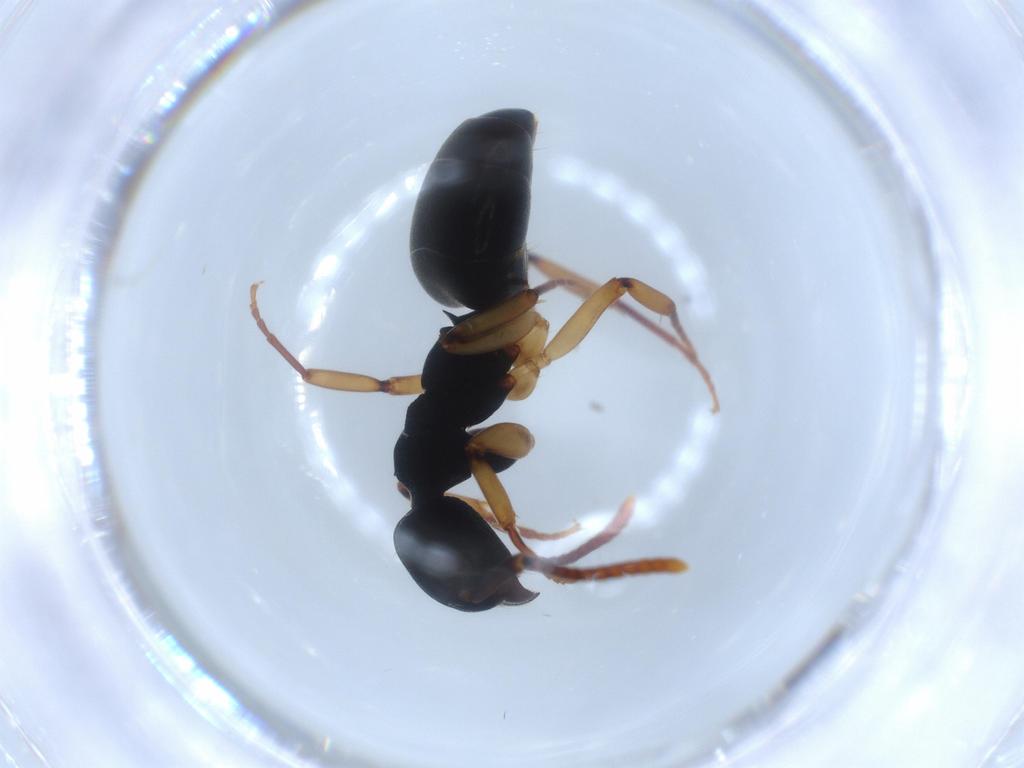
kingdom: Animalia
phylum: Arthropoda
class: Insecta
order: Hymenoptera
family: Formicidae
